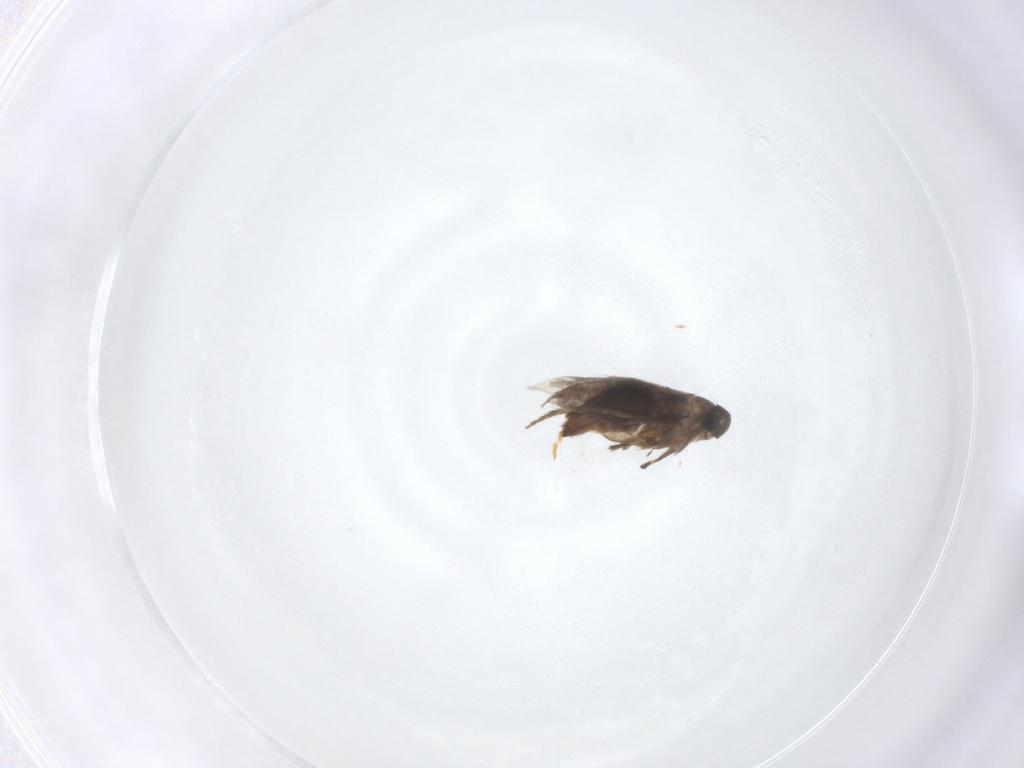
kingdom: Animalia
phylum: Arthropoda
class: Insecta
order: Lepidoptera
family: Heliozelidae
